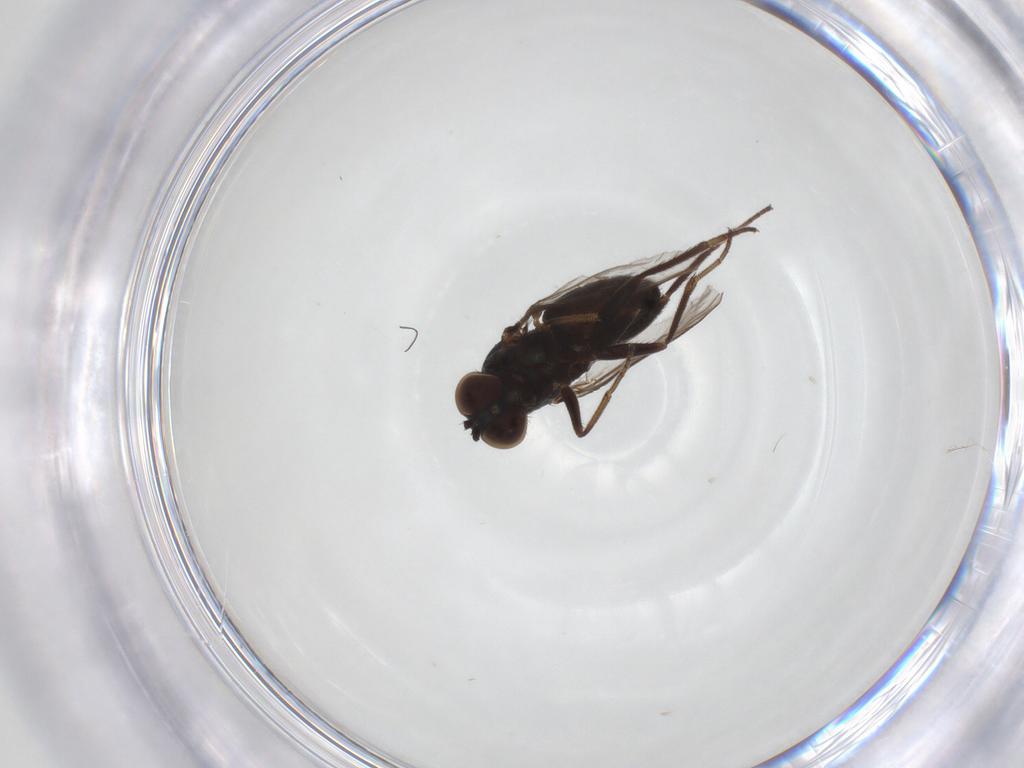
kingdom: Animalia
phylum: Arthropoda
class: Insecta
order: Diptera
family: Dolichopodidae
